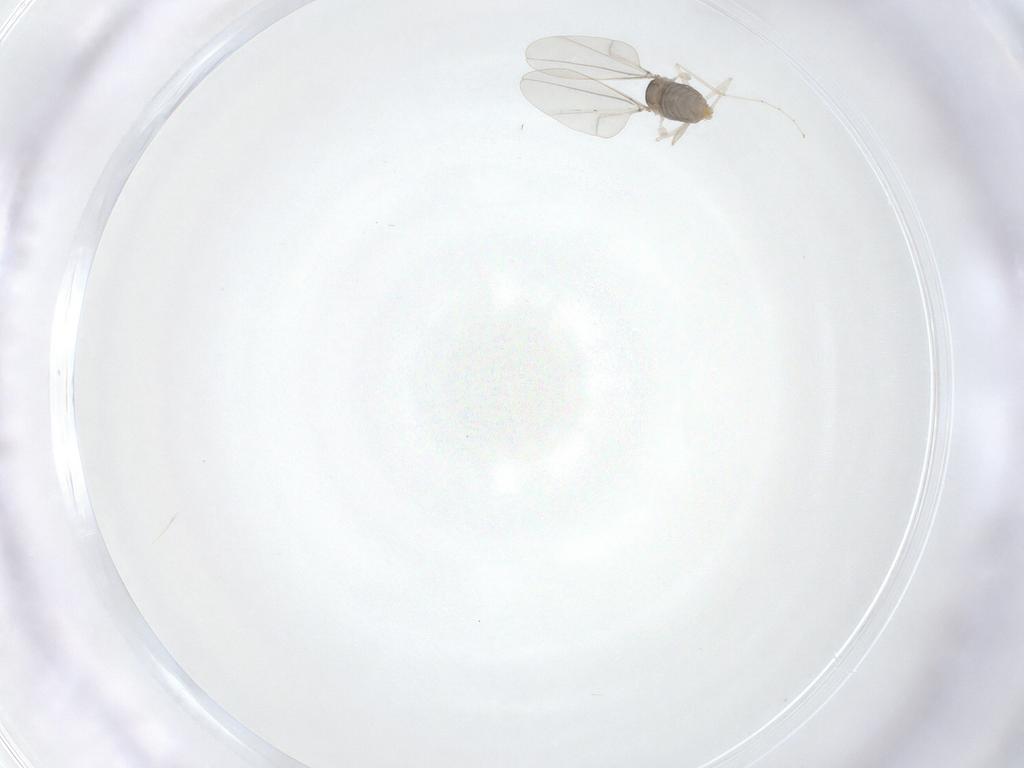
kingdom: Animalia
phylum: Arthropoda
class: Insecta
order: Diptera
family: Cecidomyiidae
